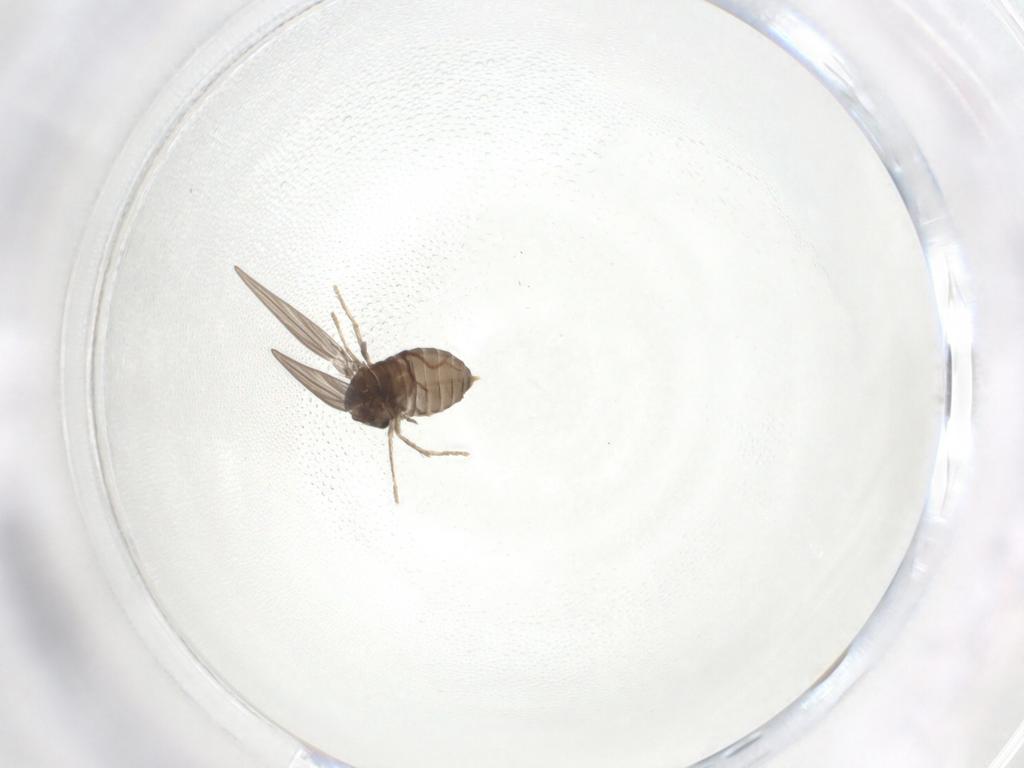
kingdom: Animalia
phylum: Arthropoda
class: Insecta
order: Diptera
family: Psychodidae
